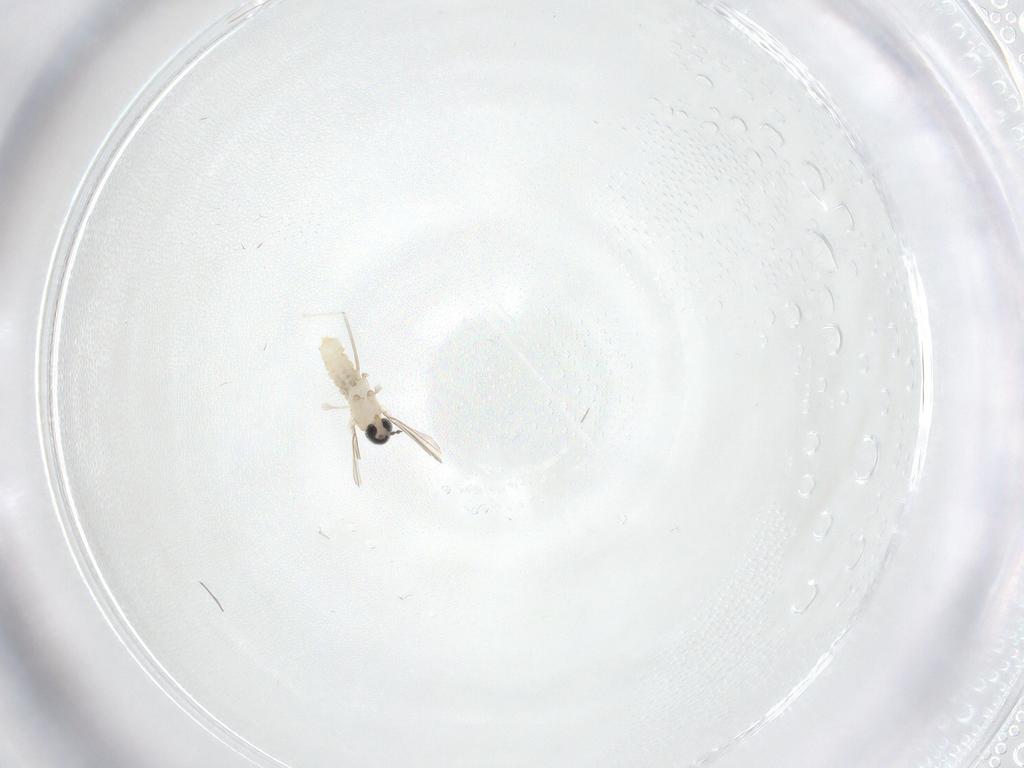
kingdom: Animalia
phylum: Arthropoda
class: Insecta
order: Diptera
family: Cecidomyiidae
